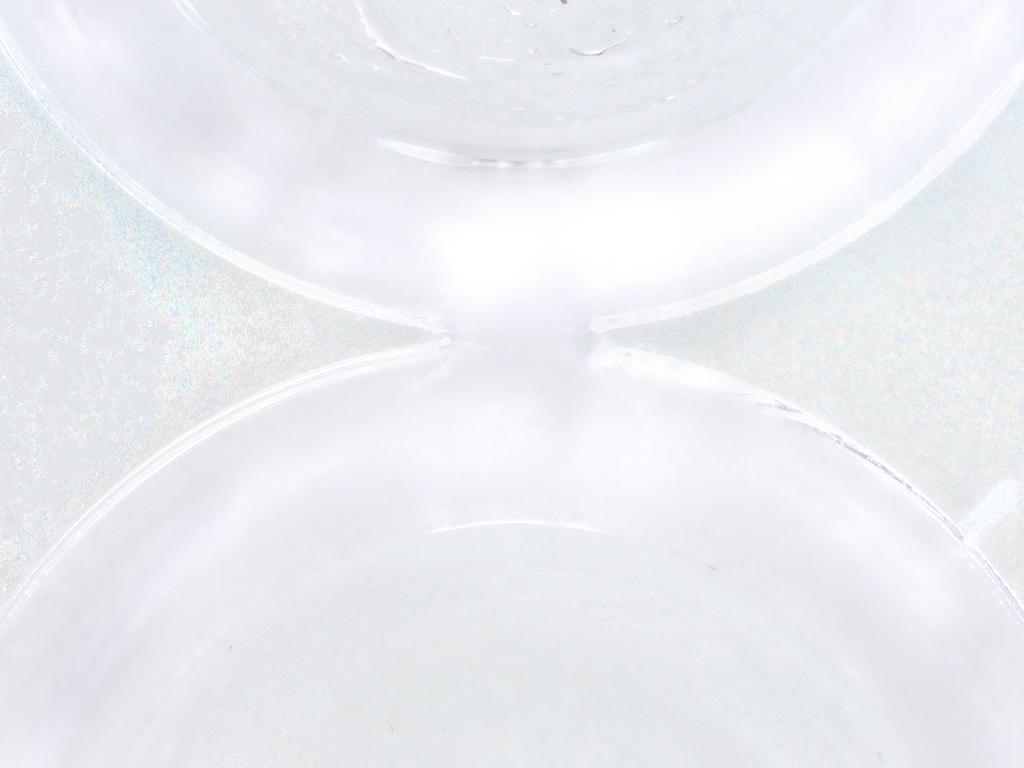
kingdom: Animalia
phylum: Arthropoda
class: Insecta
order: Diptera
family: Psychodidae
